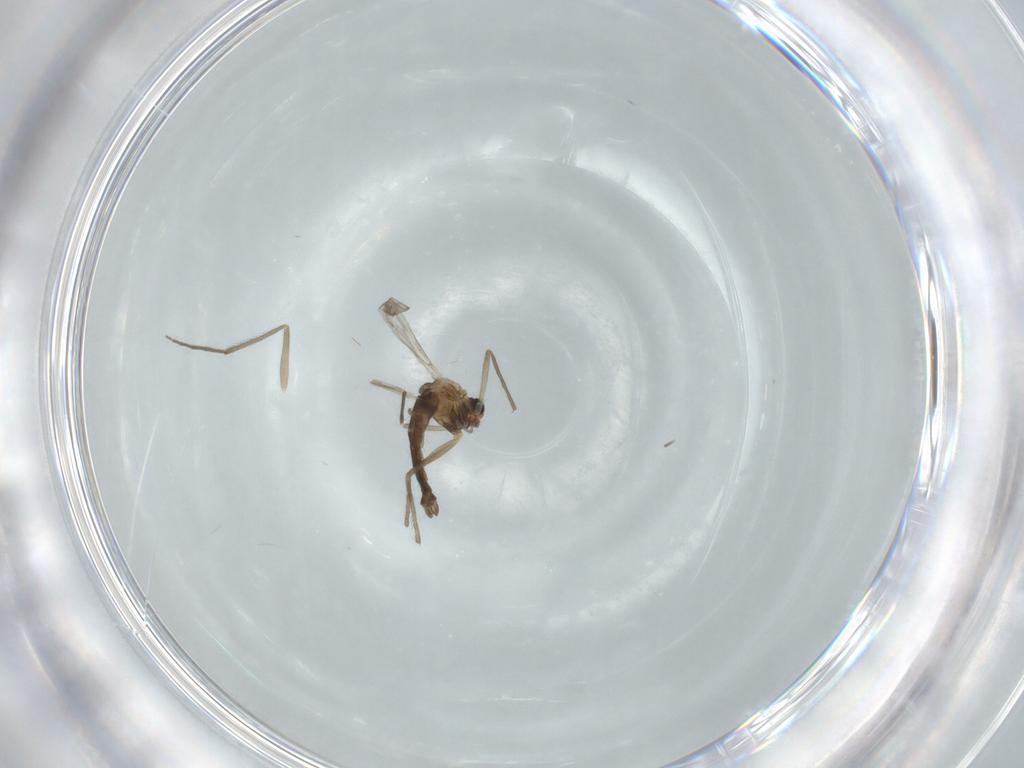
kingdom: Animalia
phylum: Arthropoda
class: Insecta
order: Diptera
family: Chironomidae
